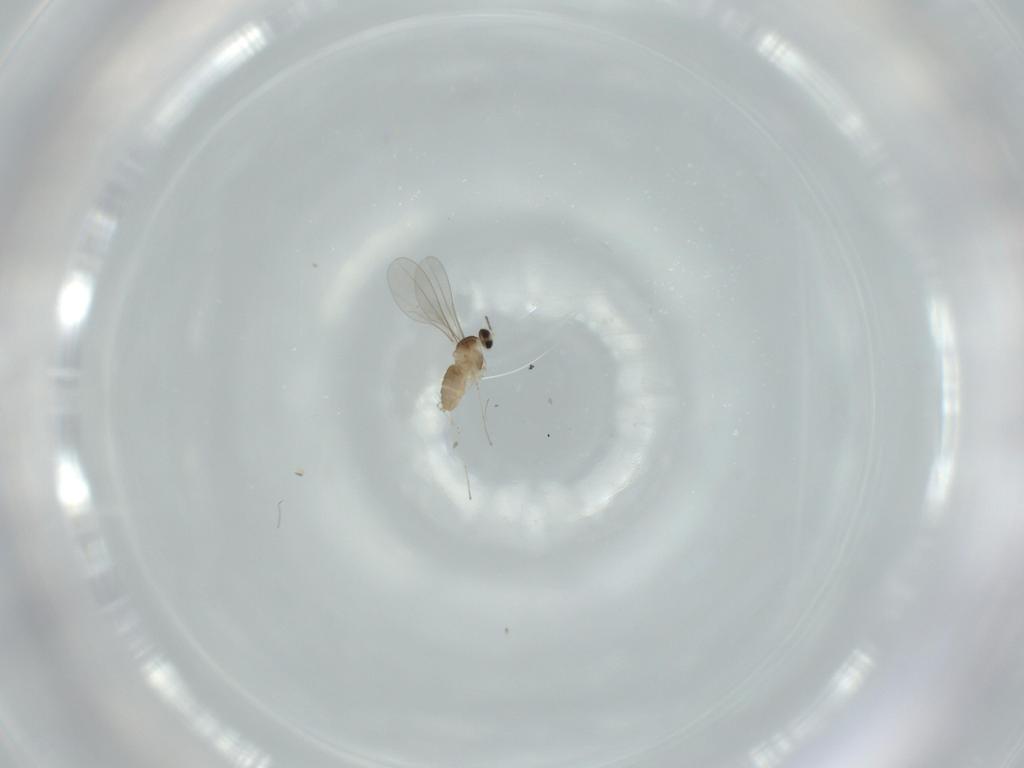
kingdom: Animalia
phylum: Arthropoda
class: Insecta
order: Diptera
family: Cecidomyiidae
